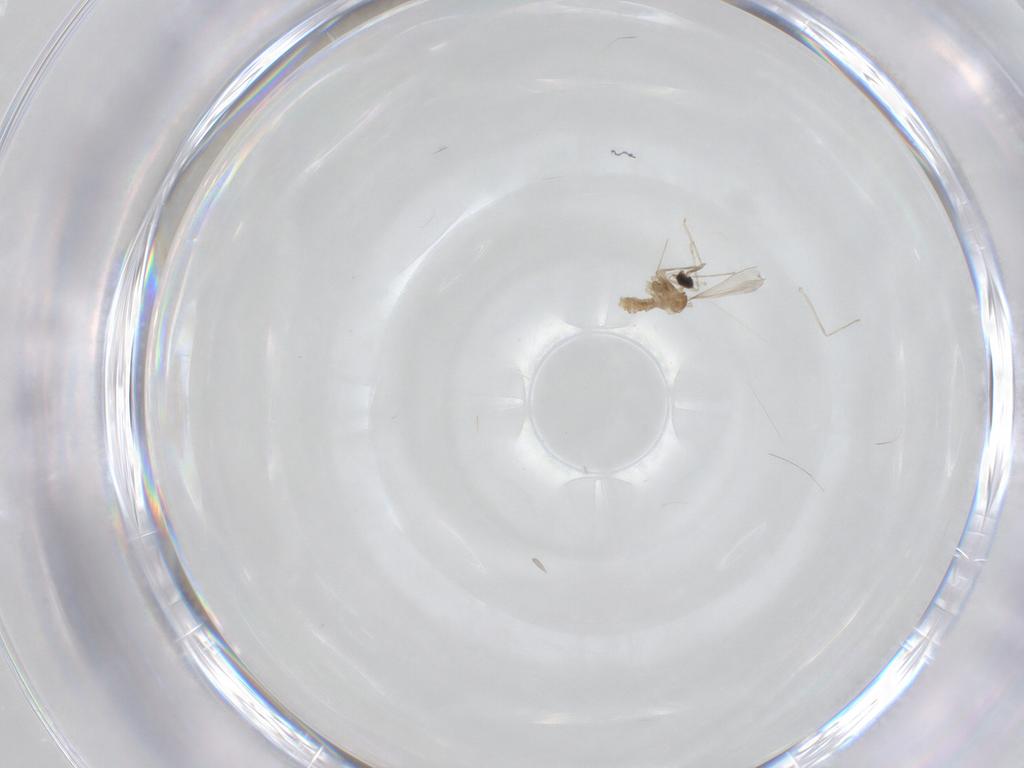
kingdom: Animalia
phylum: Arthropoda
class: Insecta
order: Diptera
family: Cecidomyiidae
